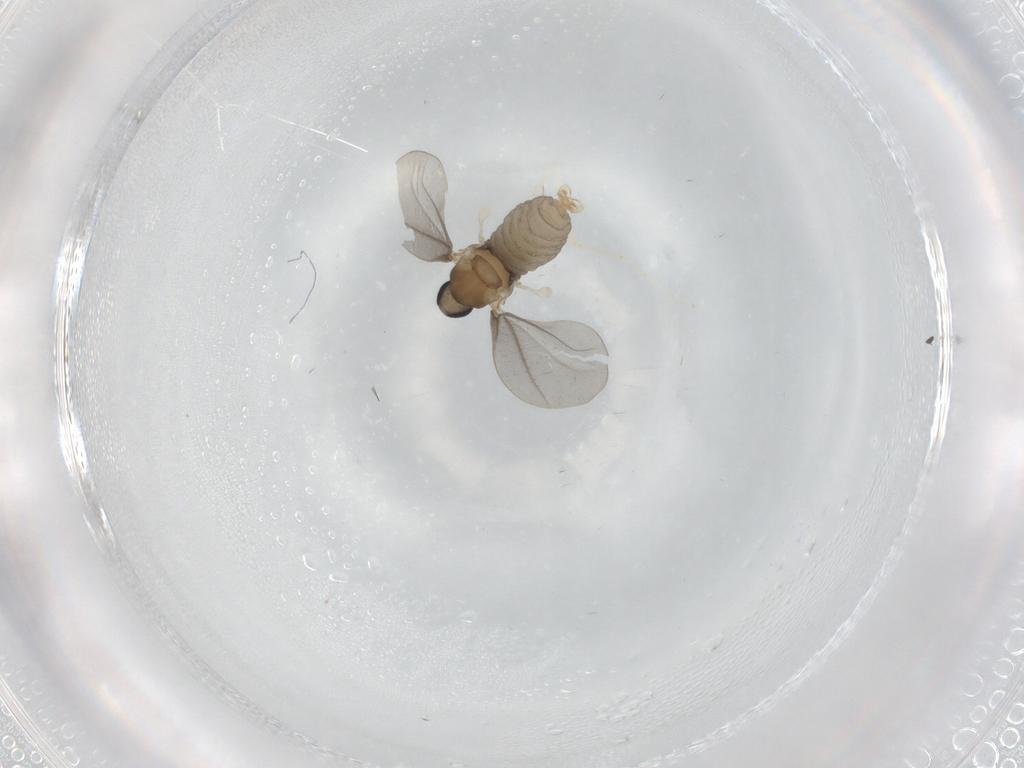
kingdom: Animalia
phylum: Arthropoda
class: Insecta
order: Diptera
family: Cecidomyiidae
